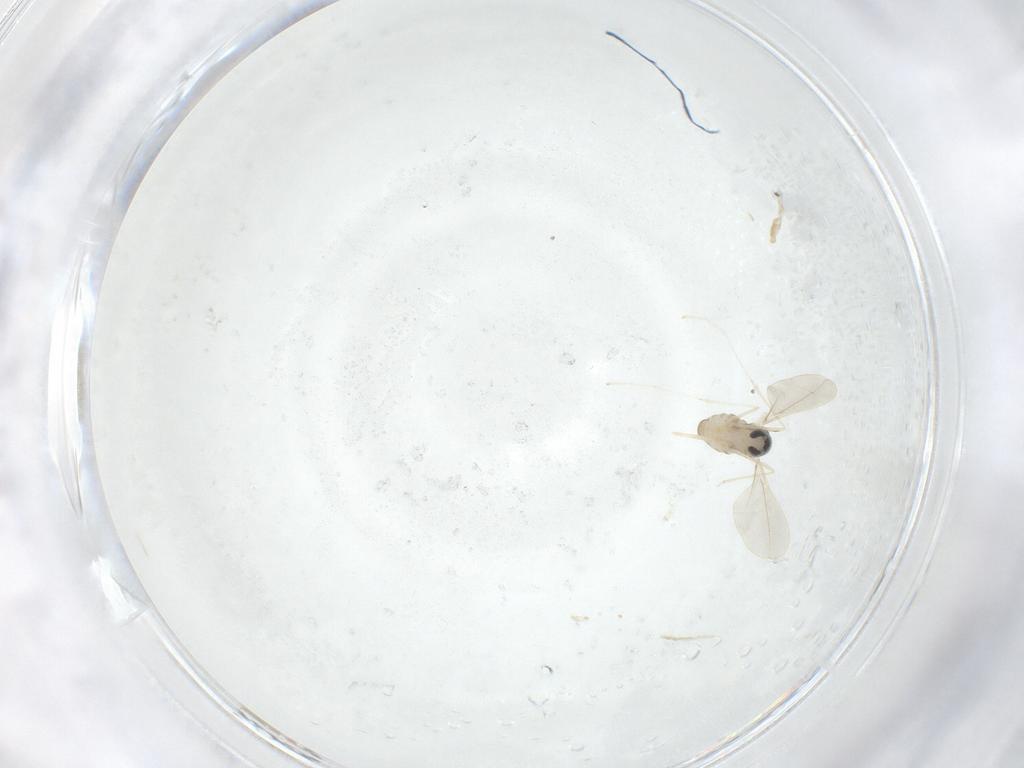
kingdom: Animalia
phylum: Arthropoda
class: Insecta
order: Diptera
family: Cecidomyiidae
